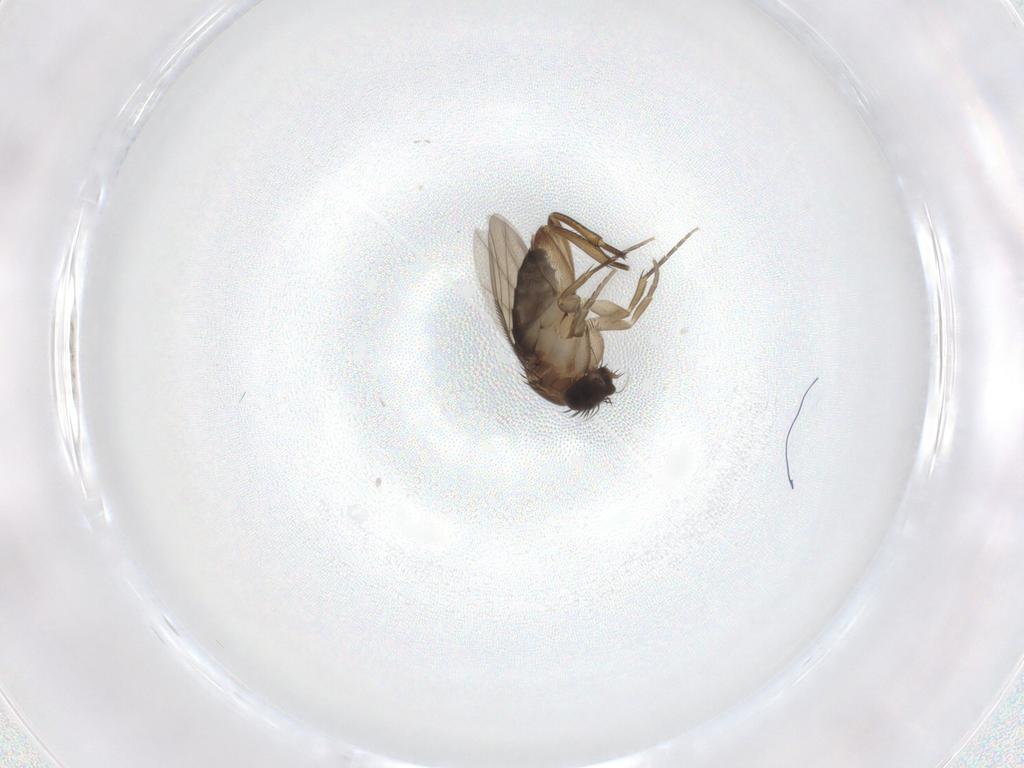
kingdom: Animalia
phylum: Arthropoda
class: Insecta
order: Diptera
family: Phoridae
